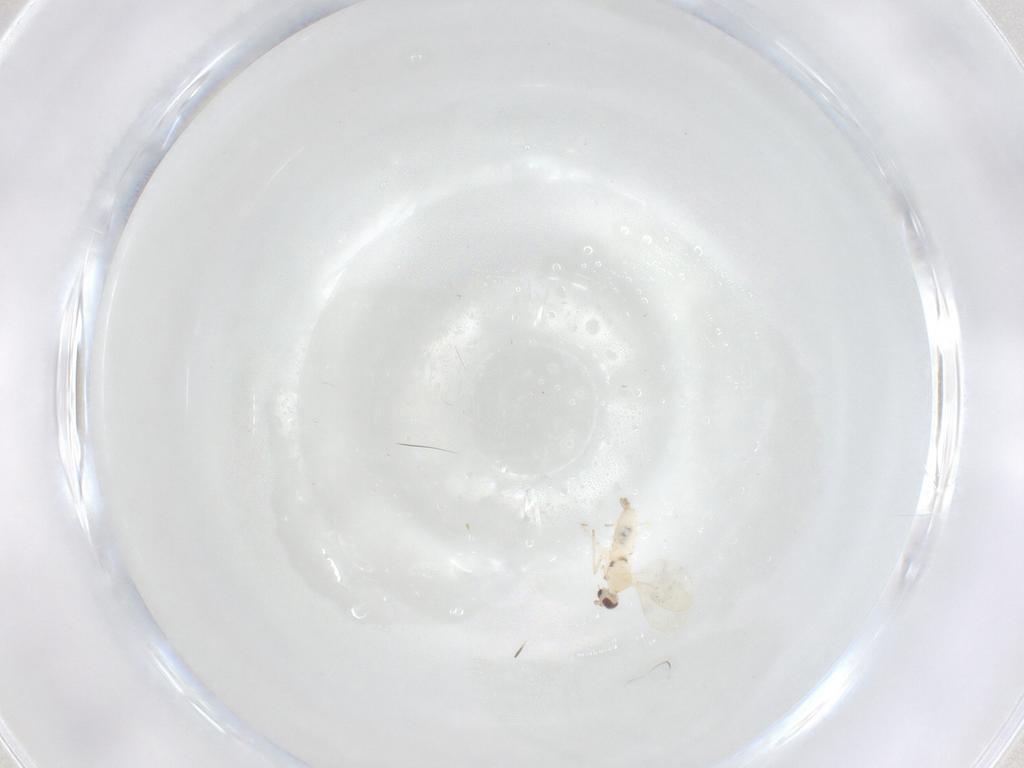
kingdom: Animalia
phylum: Arthropoda
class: Insecta
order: Diptera
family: Cecidomyiidae
